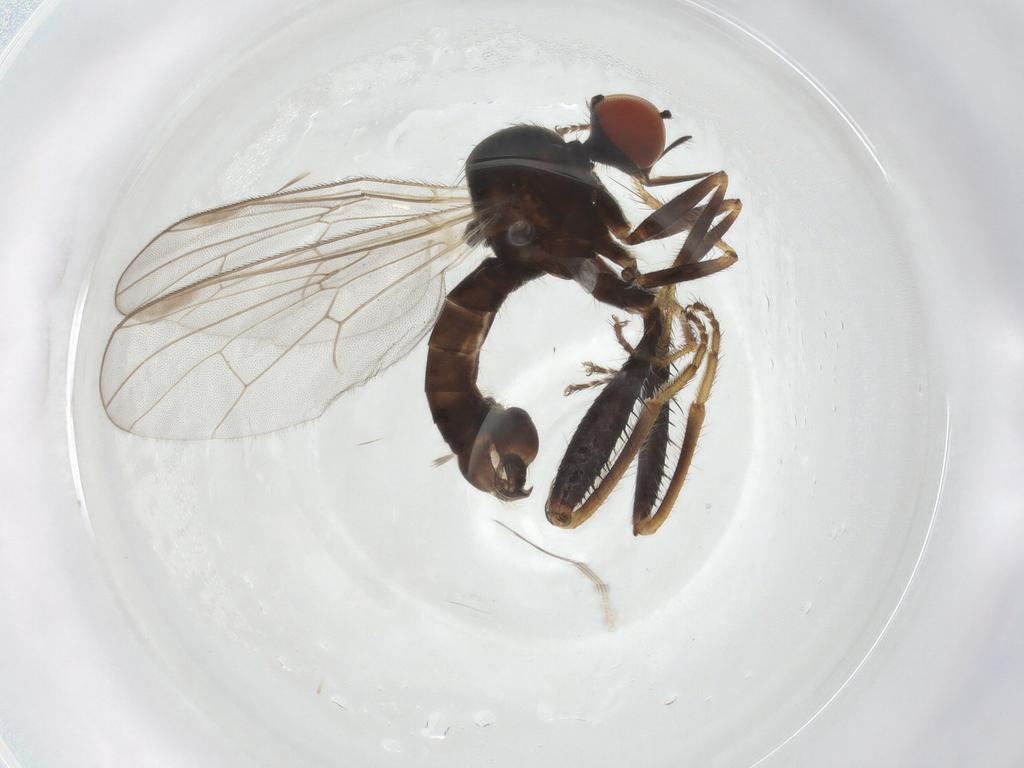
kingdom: Animalia
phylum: Arthropoda
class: Insecta
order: Diptera
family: Hybotidae
